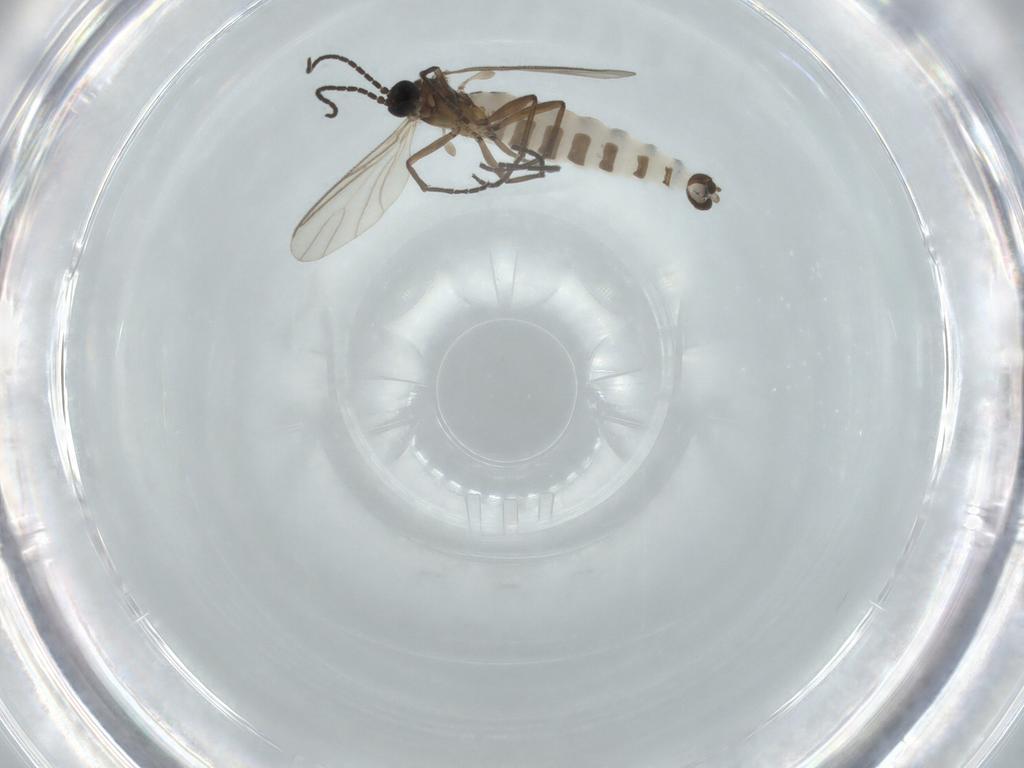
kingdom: Animalia
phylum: Arthropoda
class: Insecta
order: Diptera
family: Sciaridae
